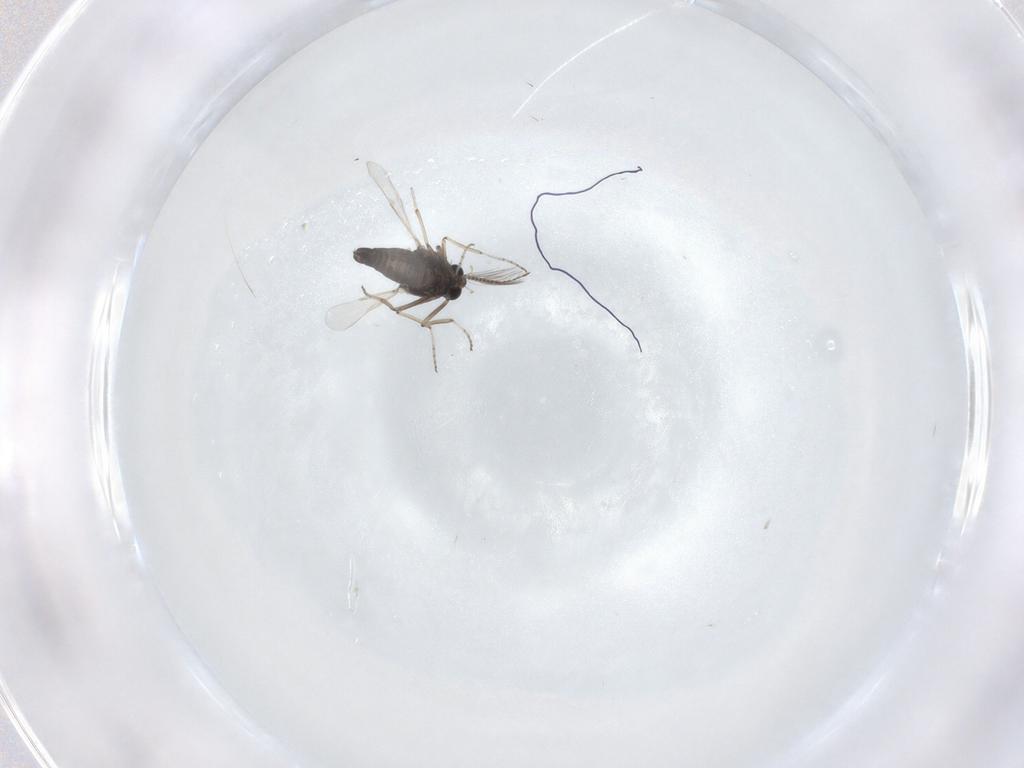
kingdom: Animalia
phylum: Arthropoda
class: Insecta
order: Diptera
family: Ceratopogonidae
